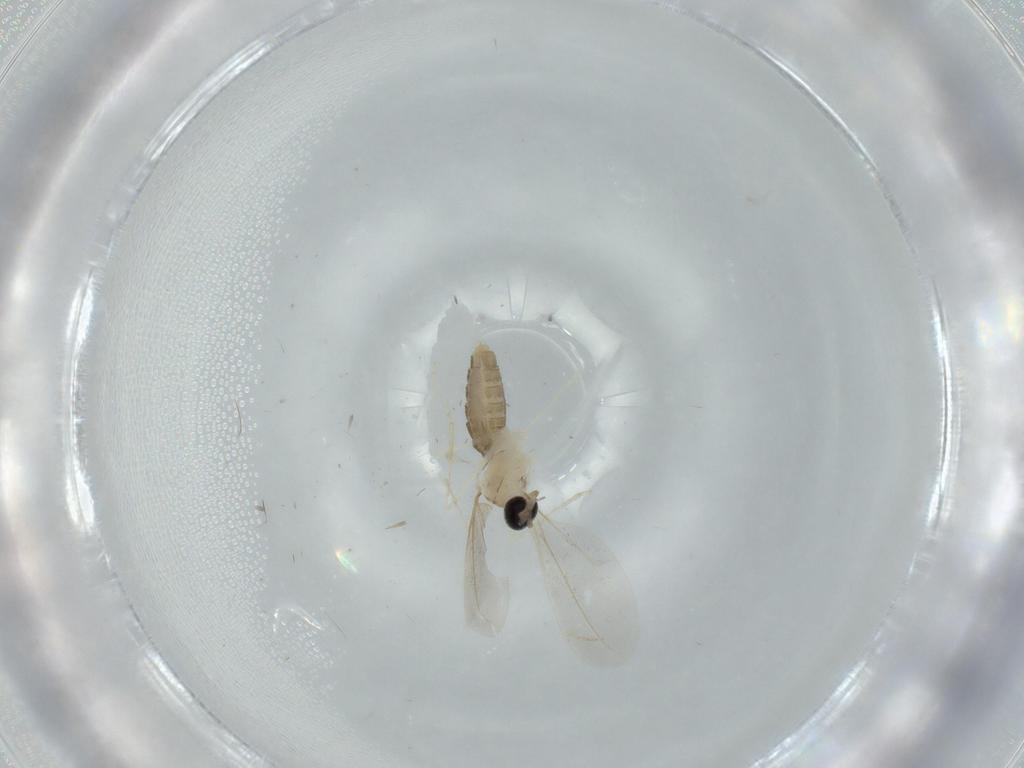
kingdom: Animalia
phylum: Arthropoda
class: Insecta
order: Diptera
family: Cecidomyiidae
